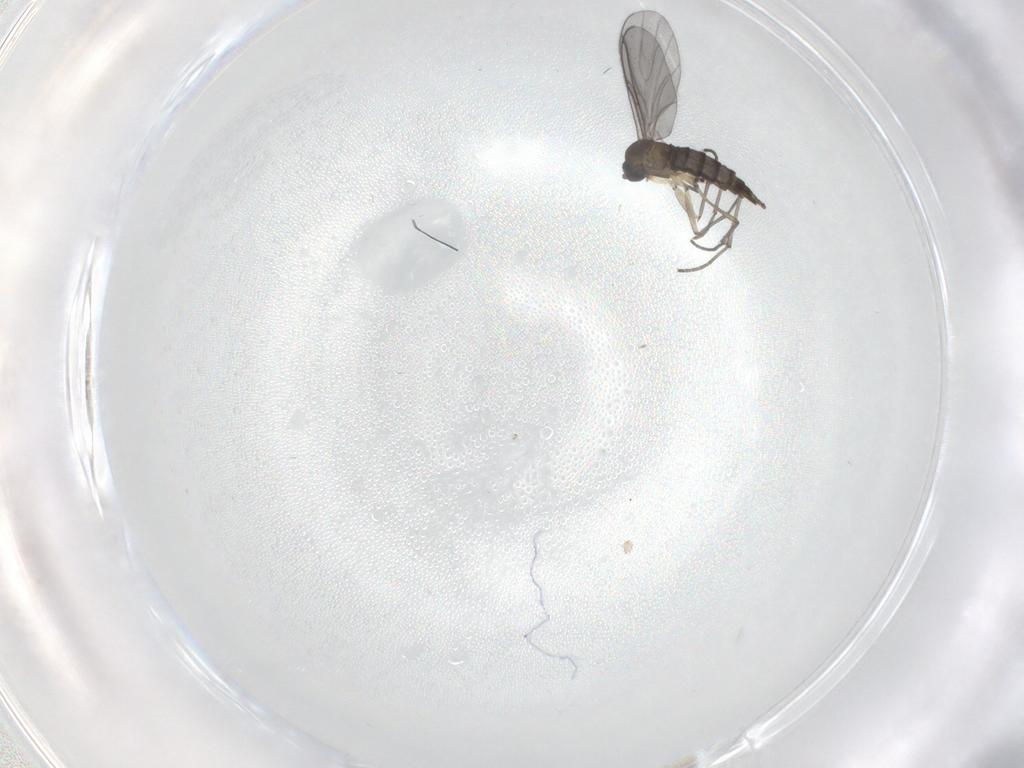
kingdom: Animalia
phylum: Arthropoda
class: Insecta
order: Diptera
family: Sciaridae
